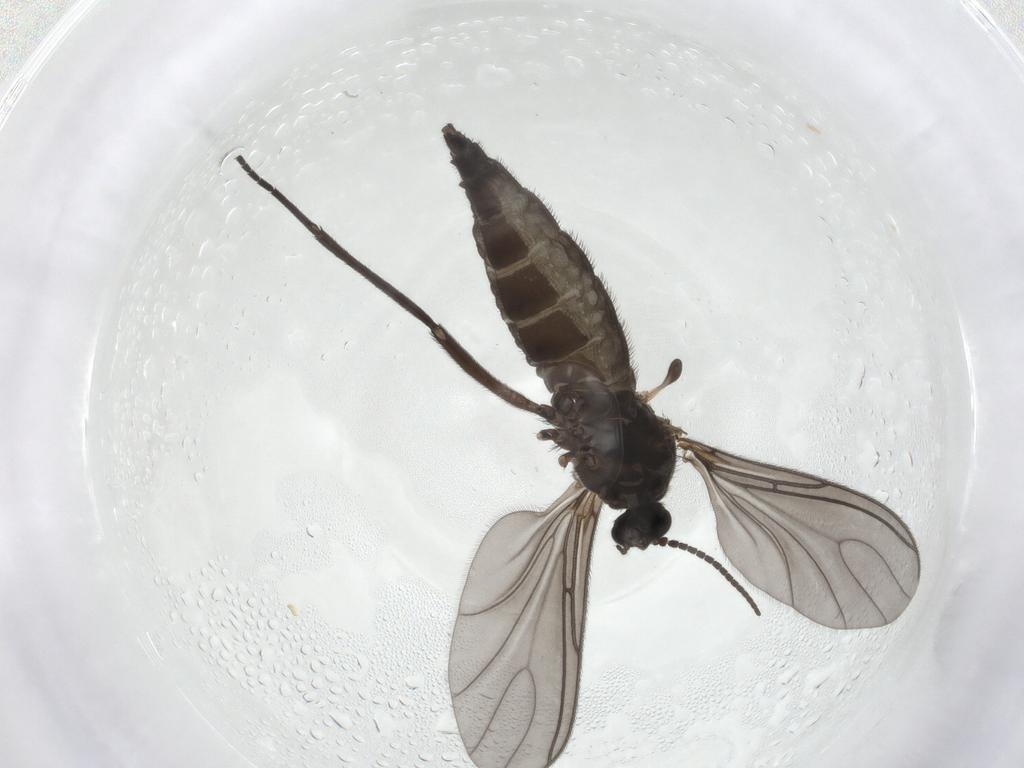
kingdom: Animalia
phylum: Arthropoda
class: Insecta
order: Diptera
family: Sciaridae
